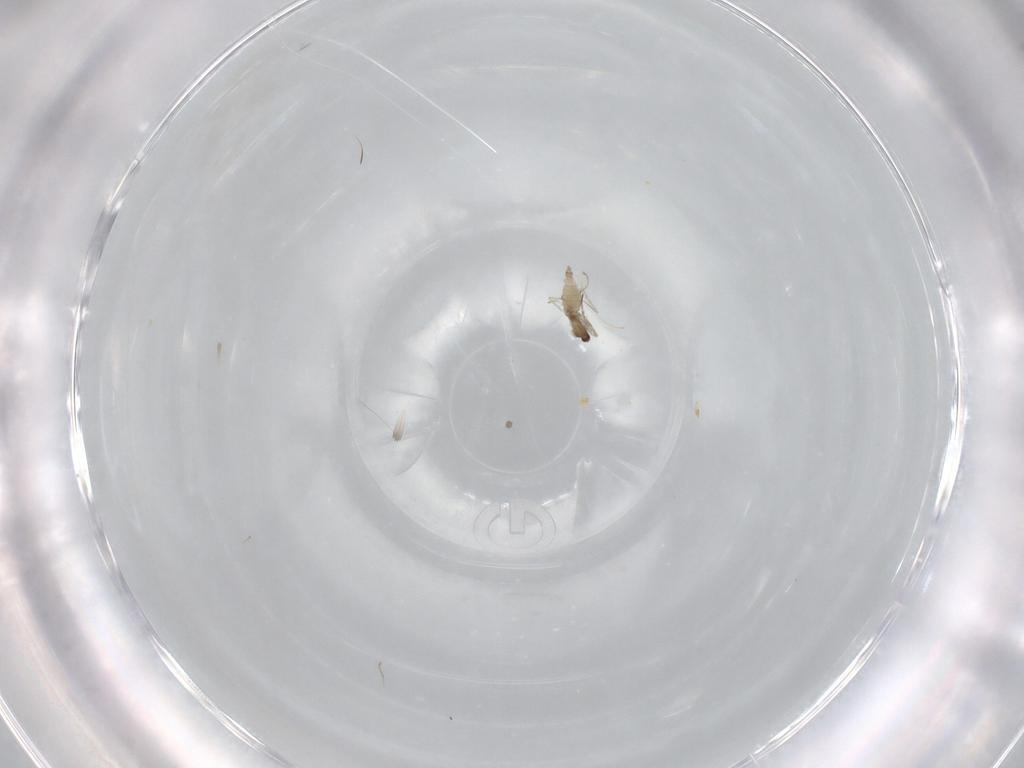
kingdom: Animalia
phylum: Arthropoda
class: Insecta
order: Diptera
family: Cecidomyiidae
